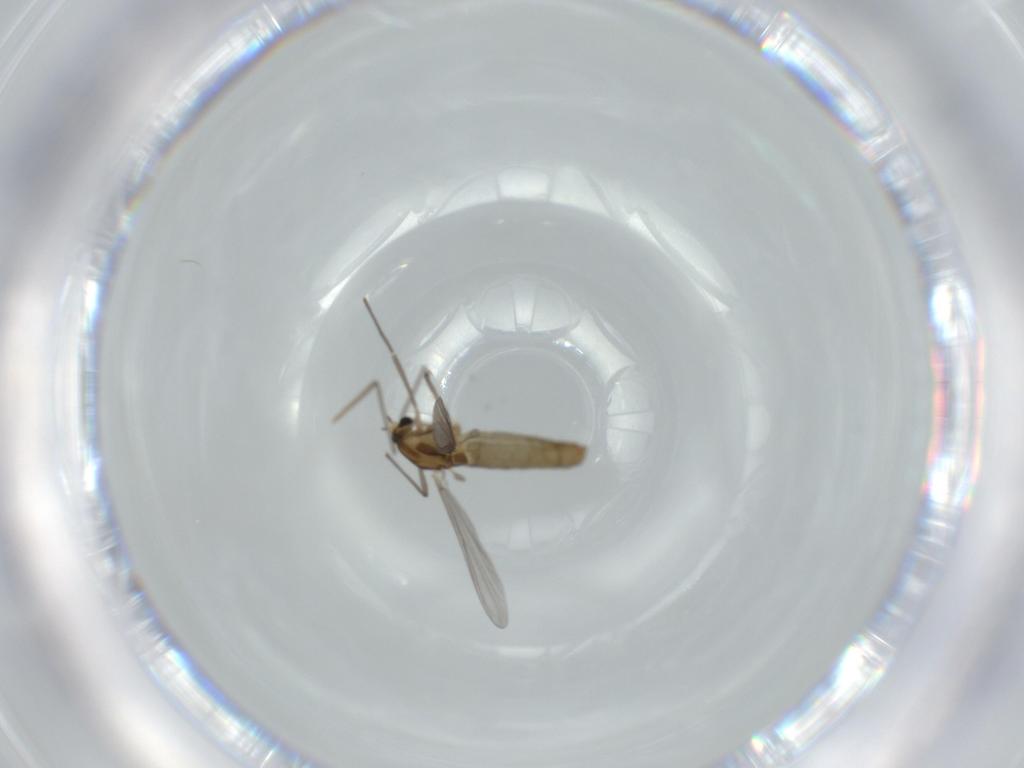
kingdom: Animalia
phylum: Arthropoda
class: Insecta
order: Diptera
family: Chironomidae
